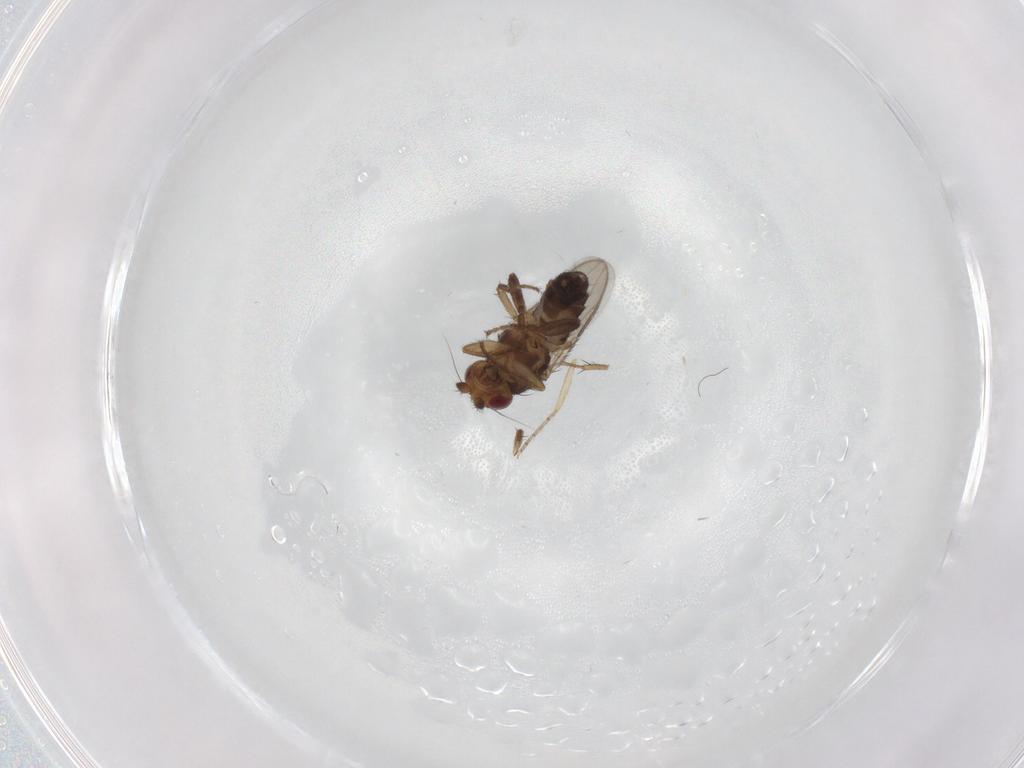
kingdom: Animalia
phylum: Arthropoda
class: Insecta
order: Diptera
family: Ceratopogonidae
